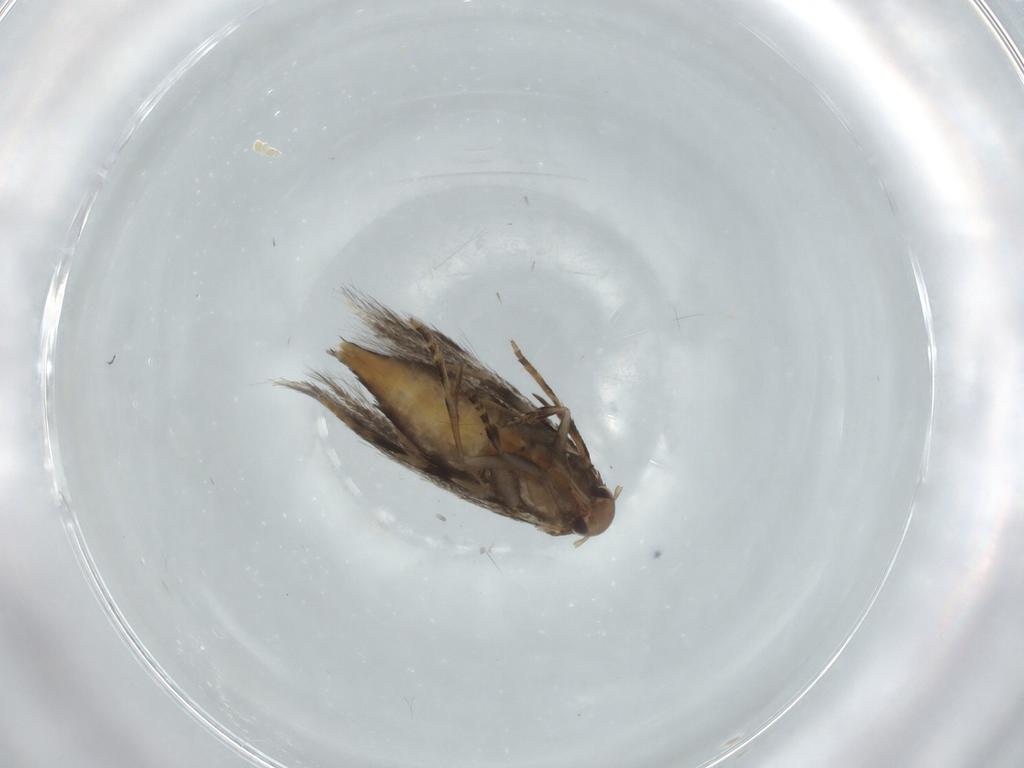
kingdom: Animalia
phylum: Arthropoda
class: Insecta
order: Lepidoptera
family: Elachistidae
